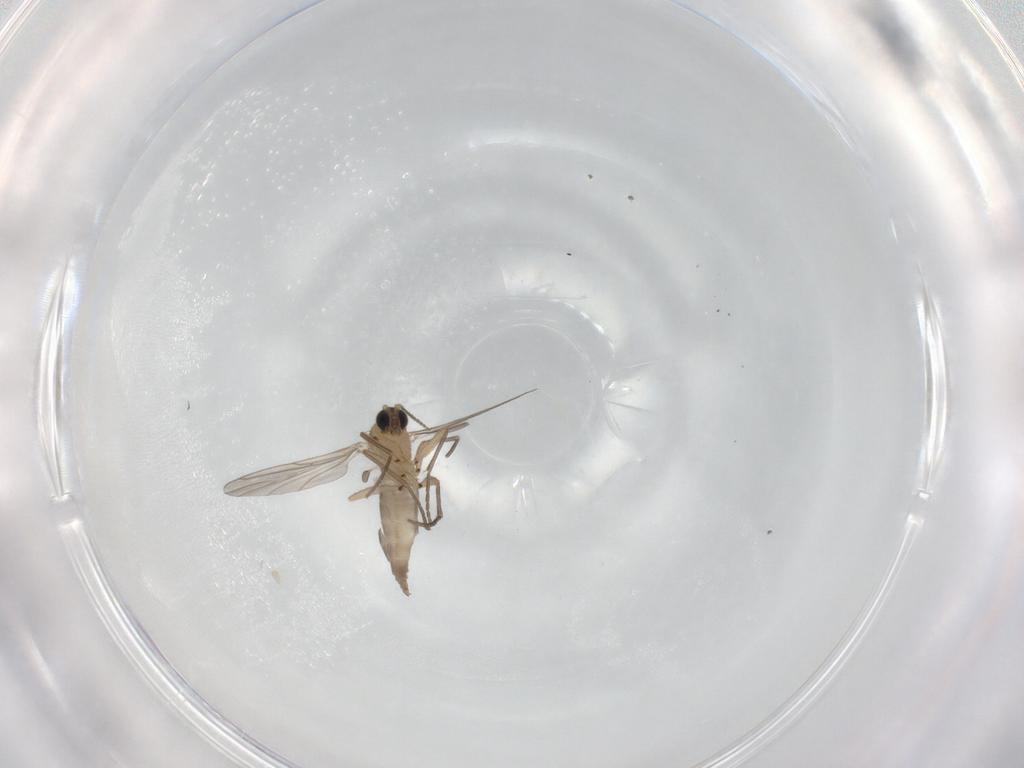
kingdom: Animalia
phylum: Arthropoda
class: Insecta
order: Diptera
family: Sciaridae
